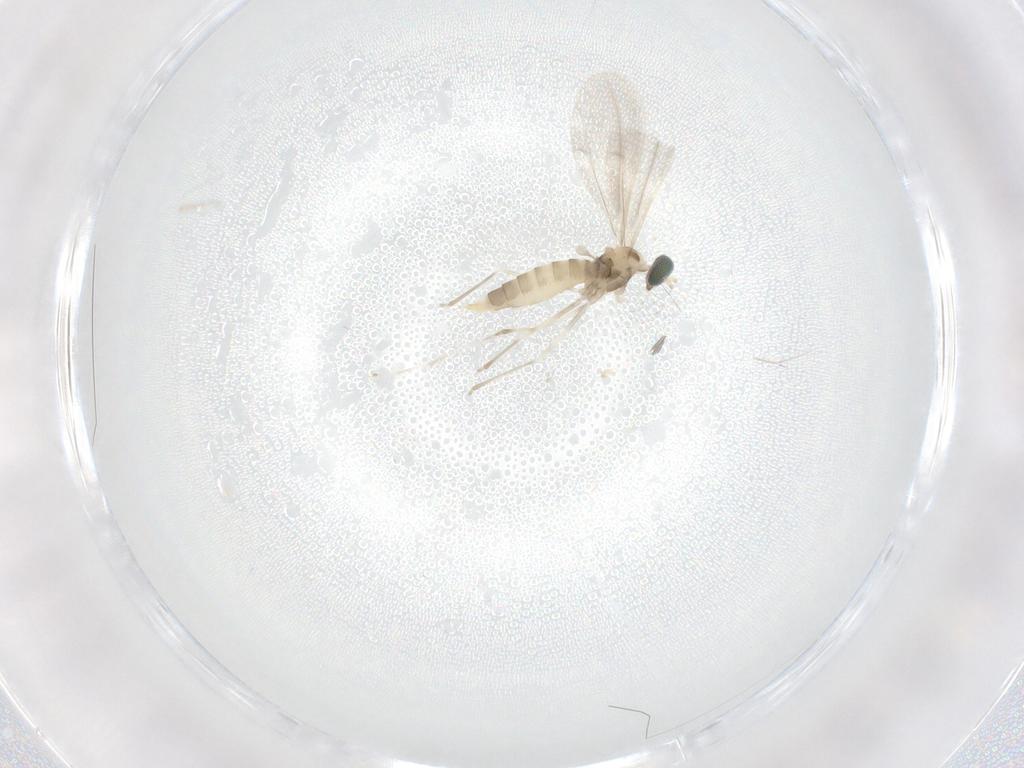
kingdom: Animalia
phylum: Arthropoda
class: Insecta
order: Diptera
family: Cecidomyiidae
